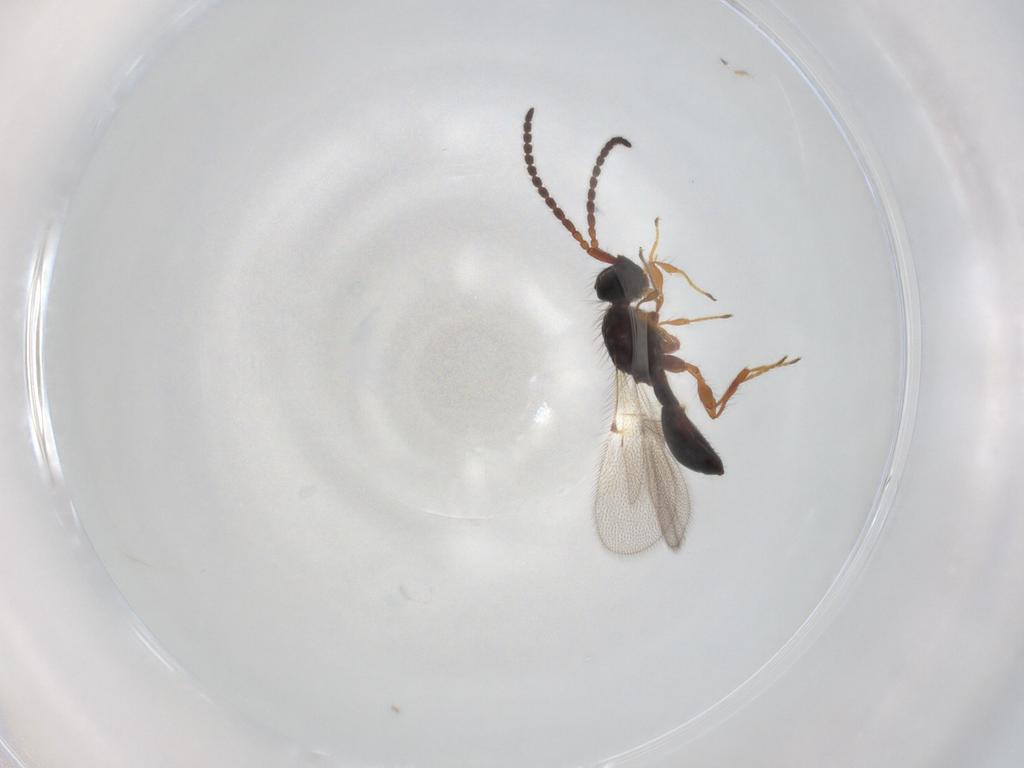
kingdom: Animalia
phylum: Arthropoda
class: Insecta
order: Hymenoptera
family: Diapriidae
